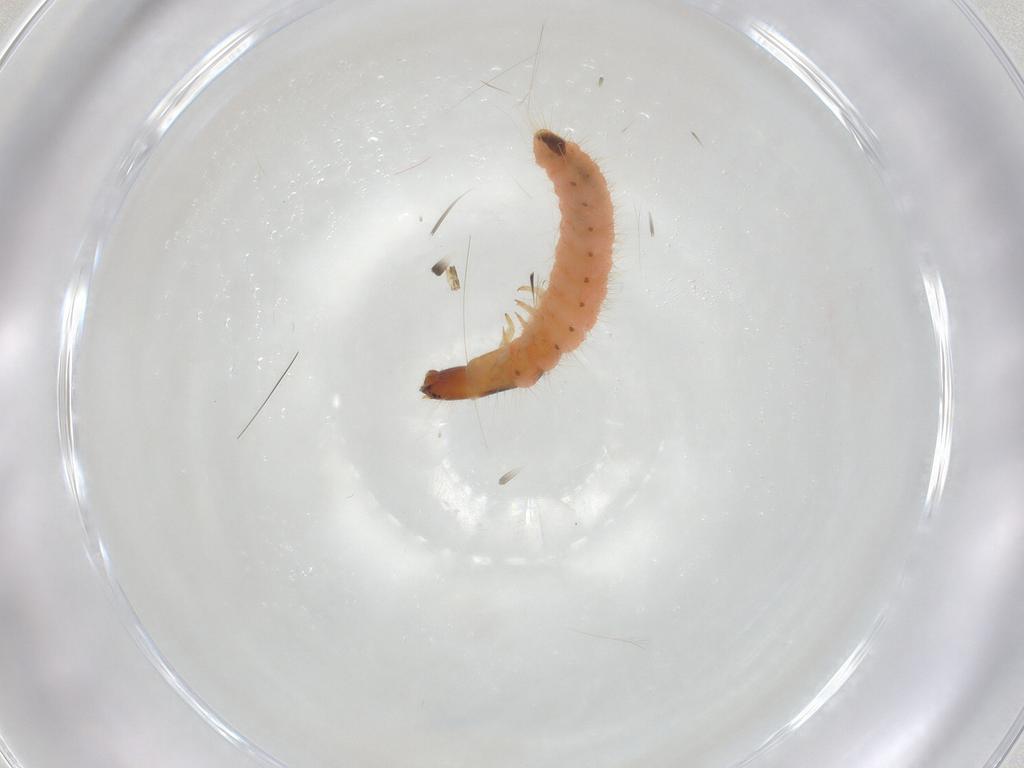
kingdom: Animalia
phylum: Arthropoda
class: Insecta
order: Coleoptera
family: Cleridae
